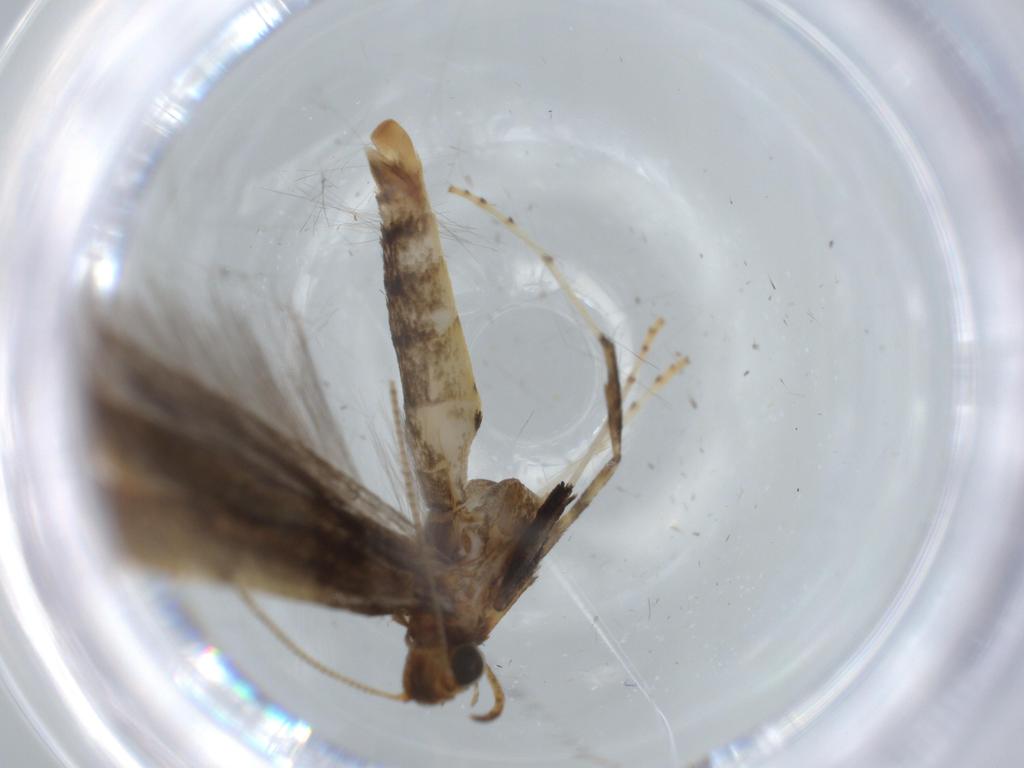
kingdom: Animalia
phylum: Arthropoda
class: Insecta
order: Lepidoptera
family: Gracillariidae
